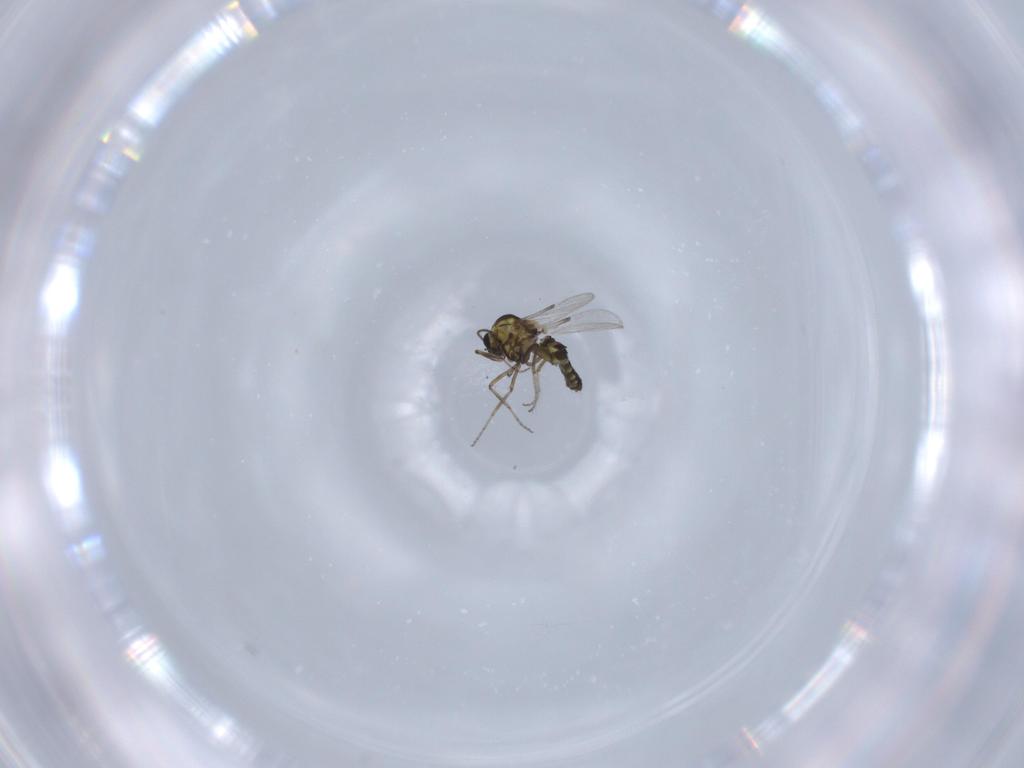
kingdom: Animalia
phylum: Arthropoda
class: Insecta
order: Diptera
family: Ceratopogonidae
